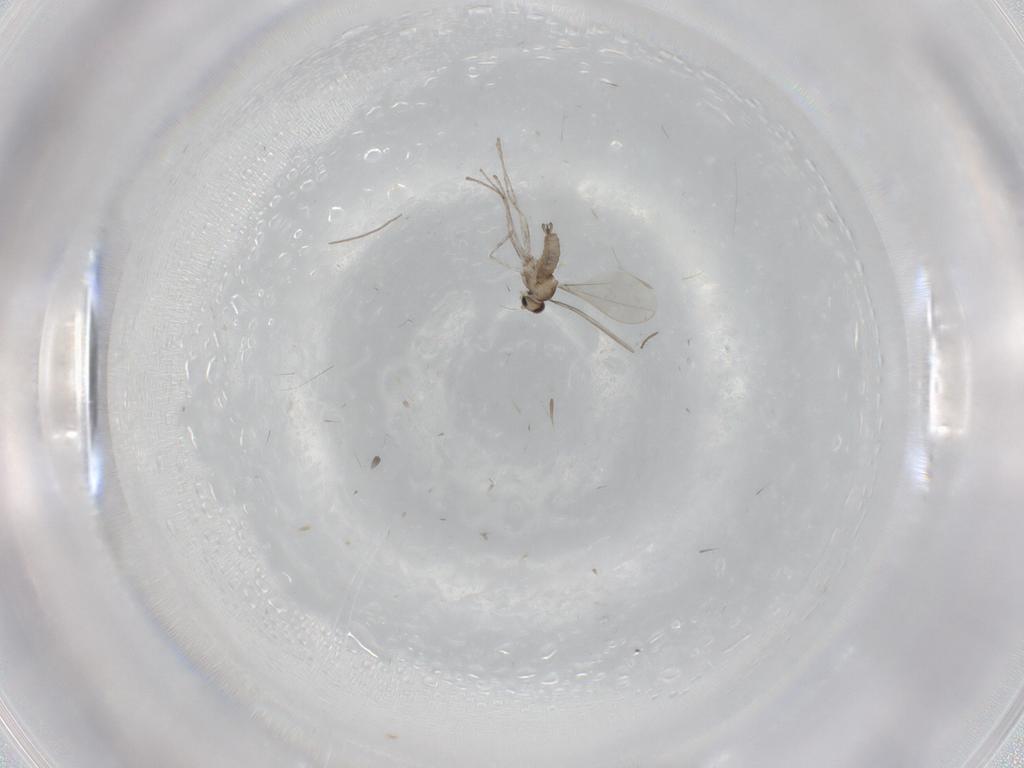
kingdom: Animalia
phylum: Arthropoda
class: Insecta
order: Diptera
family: Cecidomyiidae
